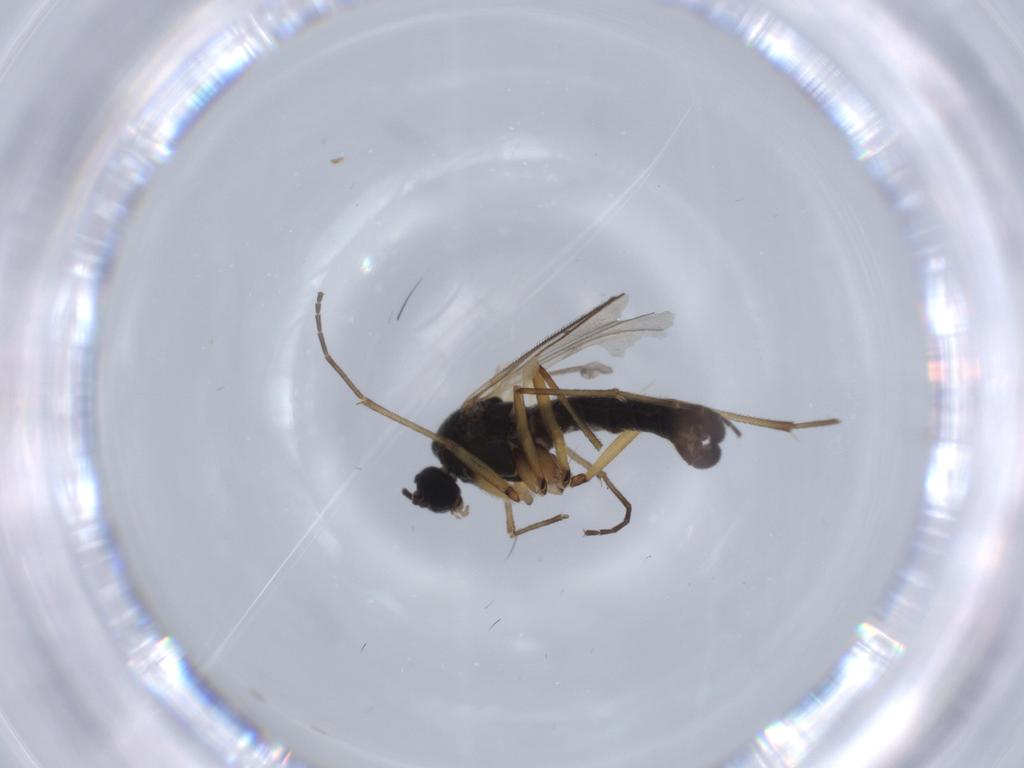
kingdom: Animalia
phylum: Arthropoda
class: Insecta
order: Diptera
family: Sciaridae
